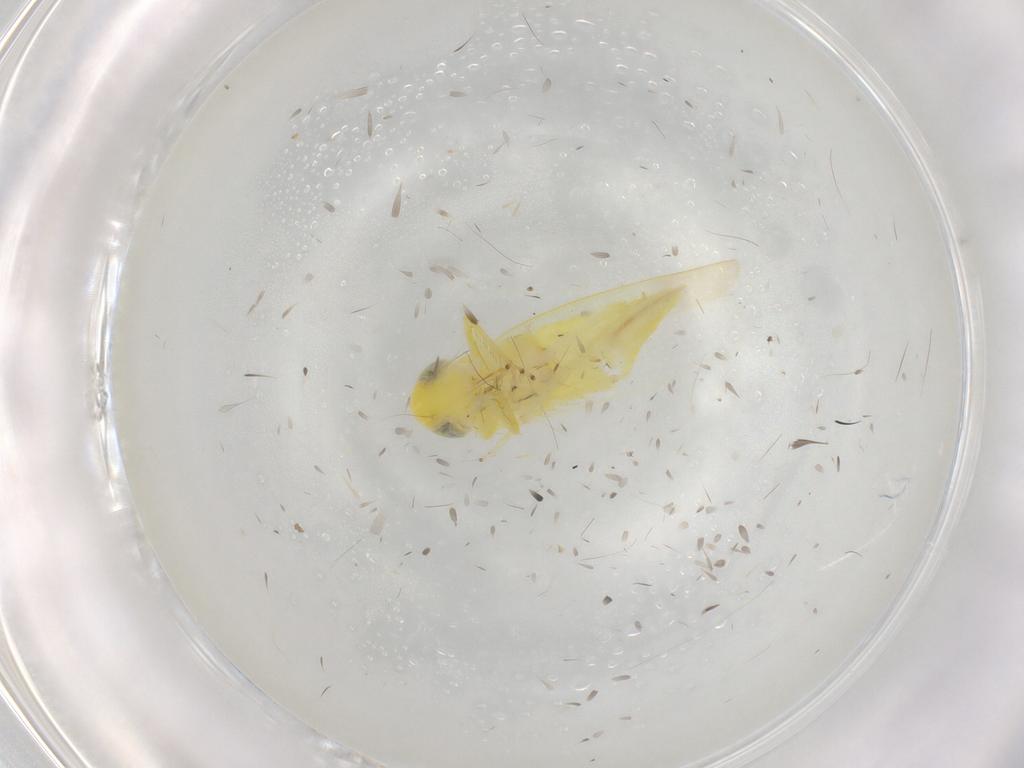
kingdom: Animalia
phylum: Arthropoda
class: Insecta
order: Hemiptera
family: Cicadellidae
